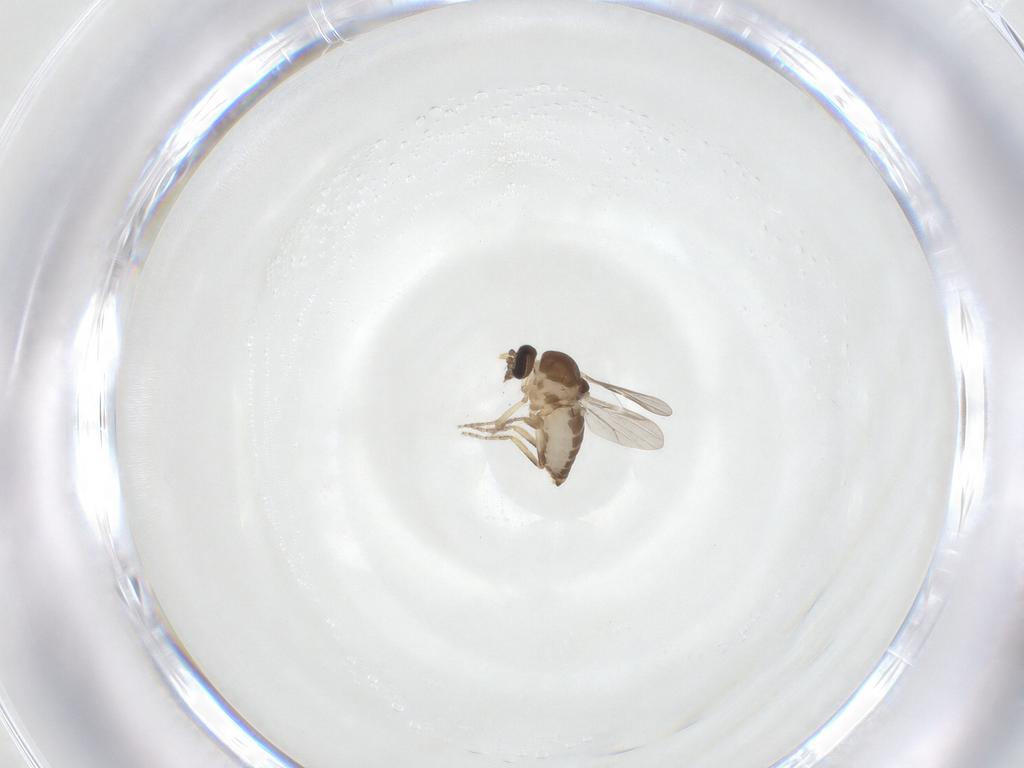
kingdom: Animalia
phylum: Arthropoda
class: Insecta
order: Diptera
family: Ceratopogonidae
